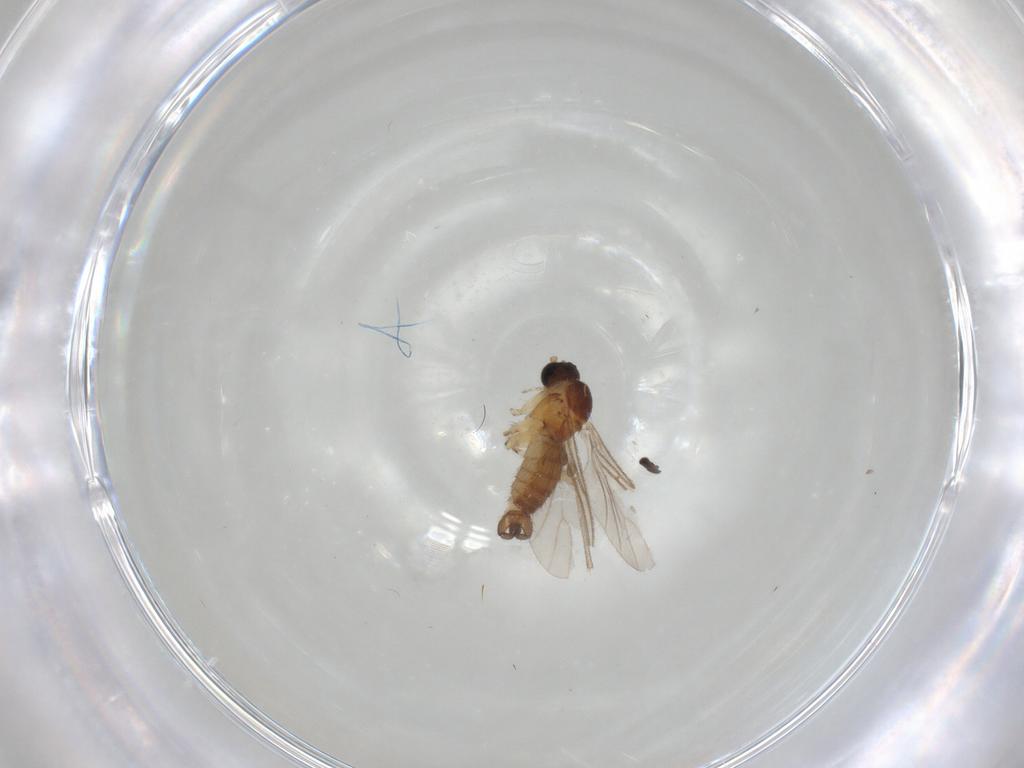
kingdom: Animalia
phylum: Arthropoda
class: Insecta
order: Diptera
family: Sciaridae
